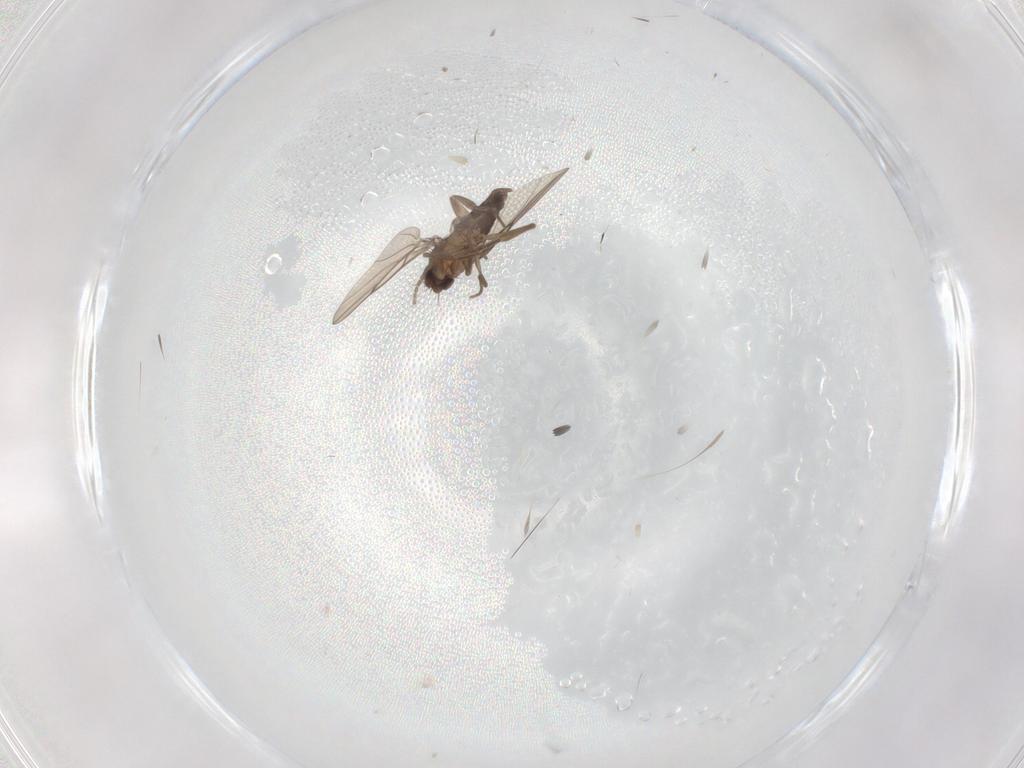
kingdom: Animalia
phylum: Arthropoda
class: Insecta
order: Diptera
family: Phoridae
